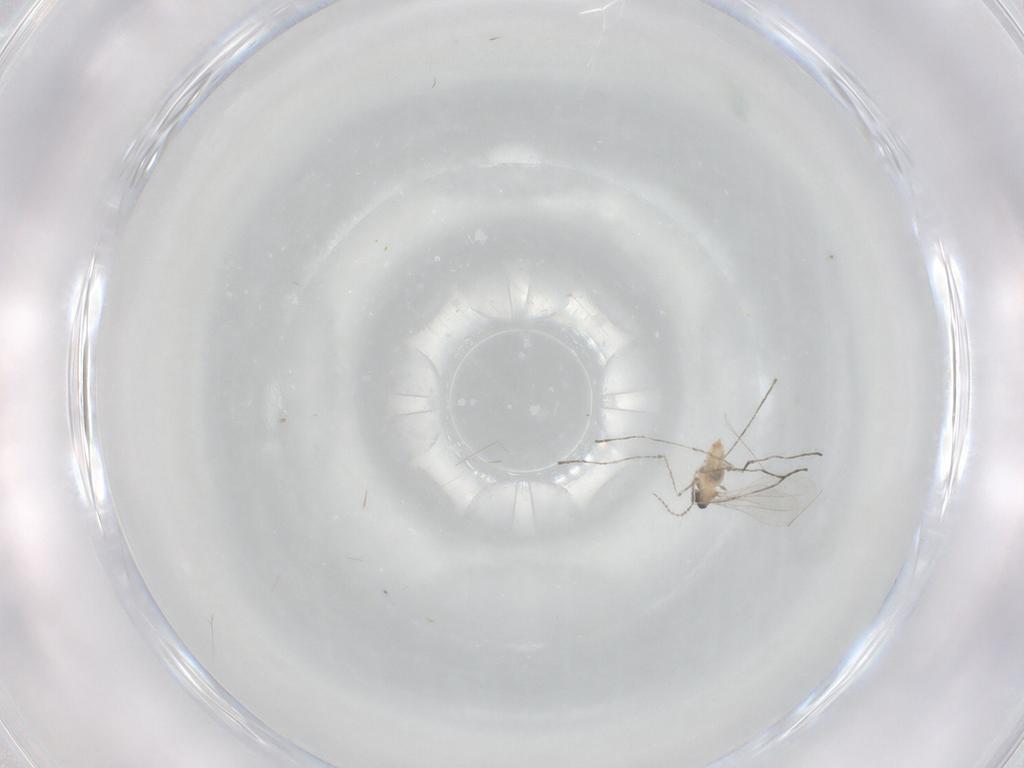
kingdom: Animalia
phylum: Arthropoda
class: Insecta
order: Diptera
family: Cecidomyiidae
